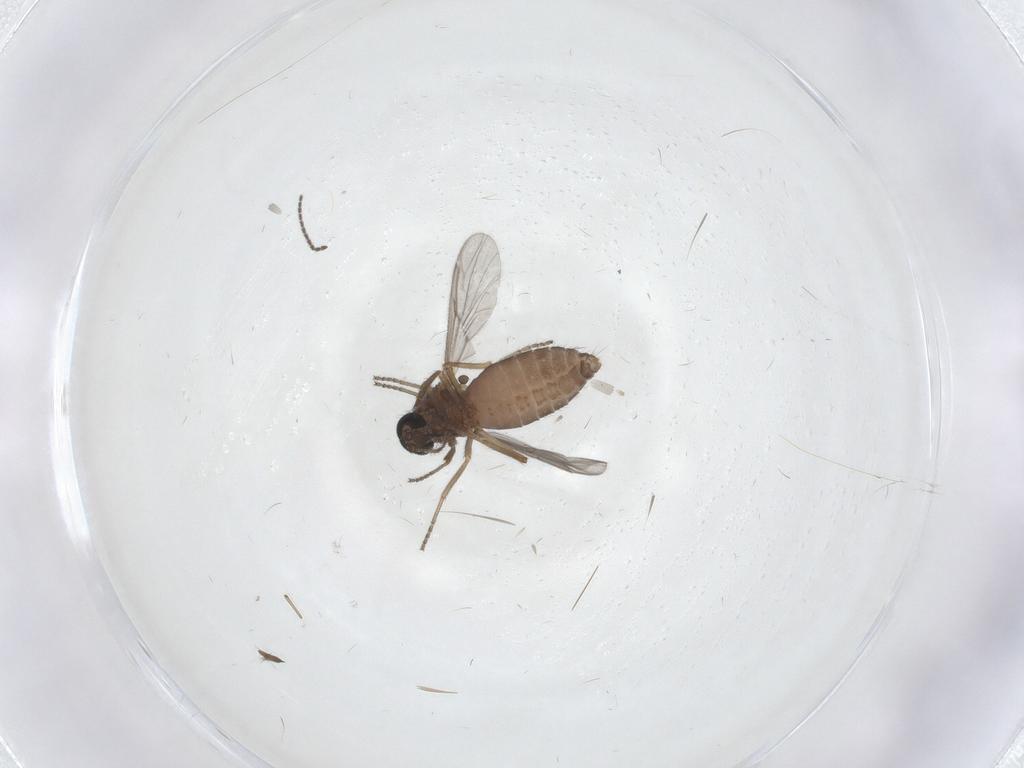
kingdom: Animalia
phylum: Arthropoda
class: Insecta
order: Diptera
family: Ceratopogonidae
